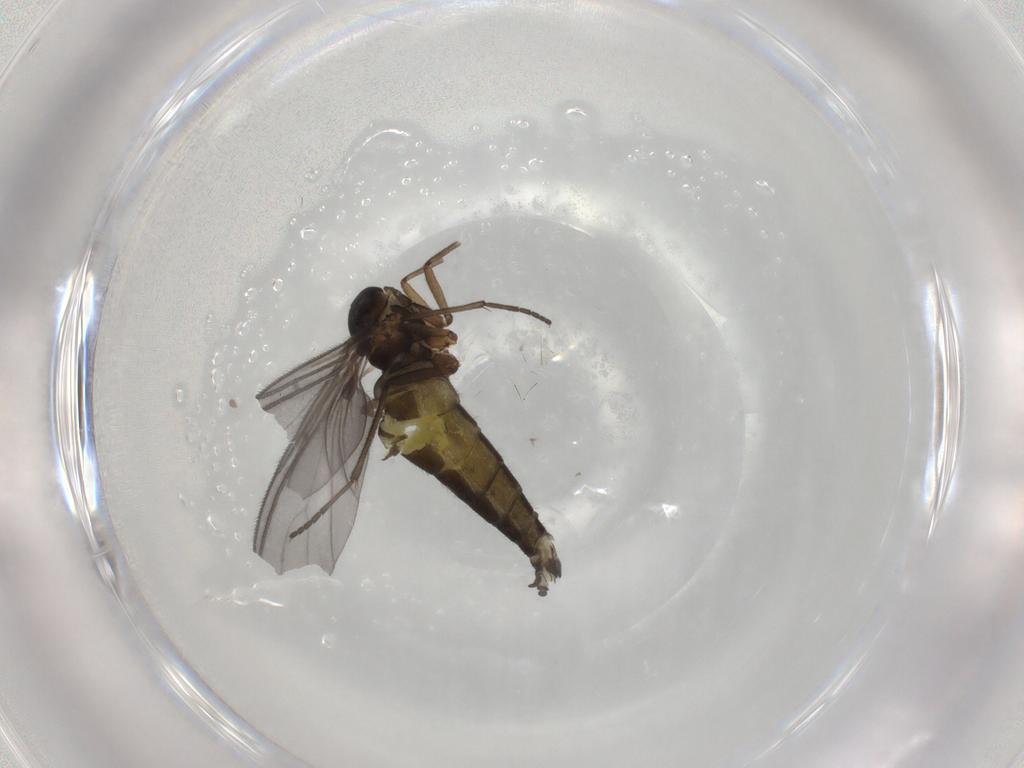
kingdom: Animalia
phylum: Arthropoda
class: Insecta
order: Diptera
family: Sciaridae
